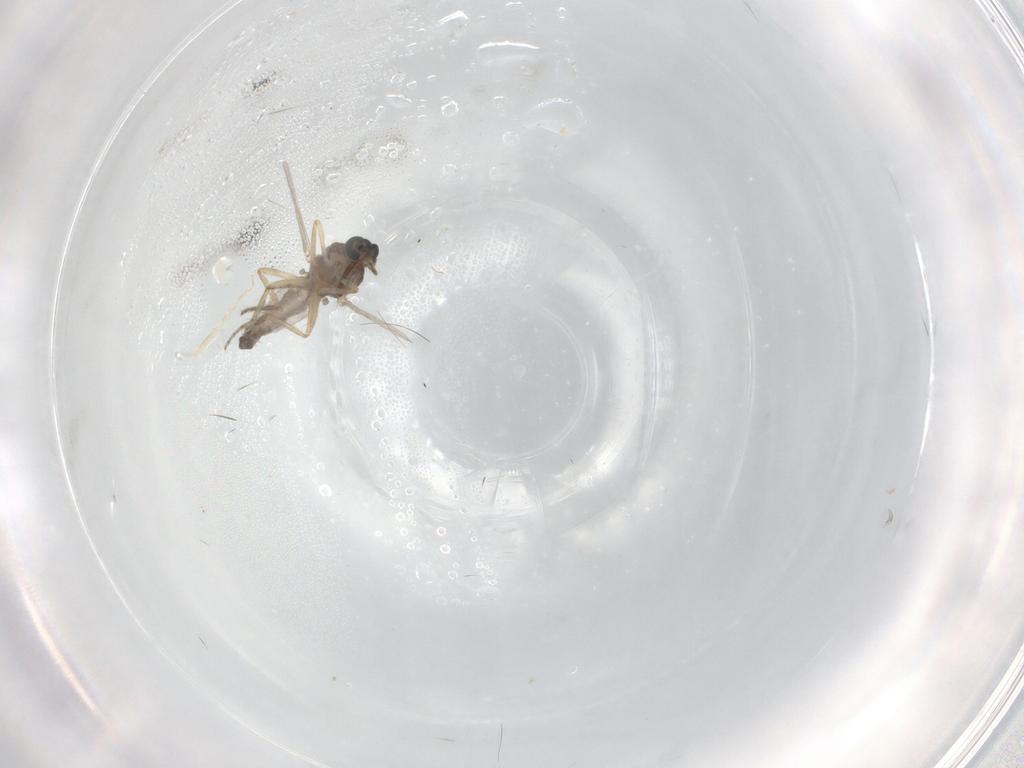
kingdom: Animalia
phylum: Arthropoda
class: Insecta
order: Diptera
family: Ceratopogonidae
